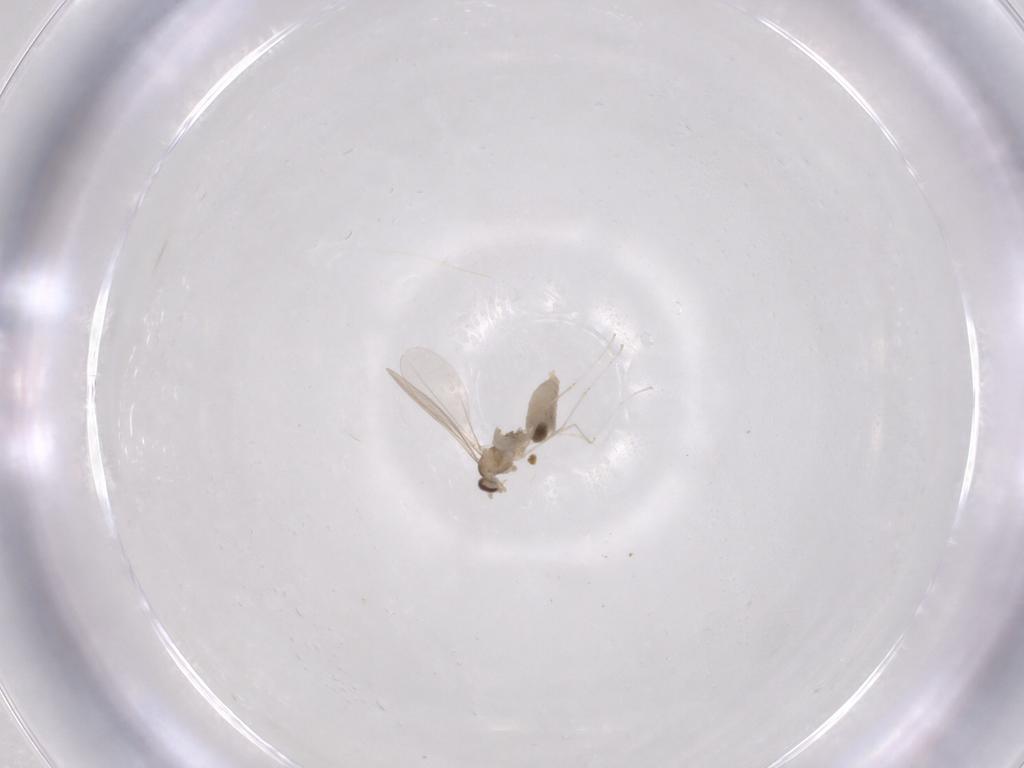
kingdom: Animalia
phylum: Arthropoda
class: Insecta
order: Diptera
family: Cecidomyiidae
